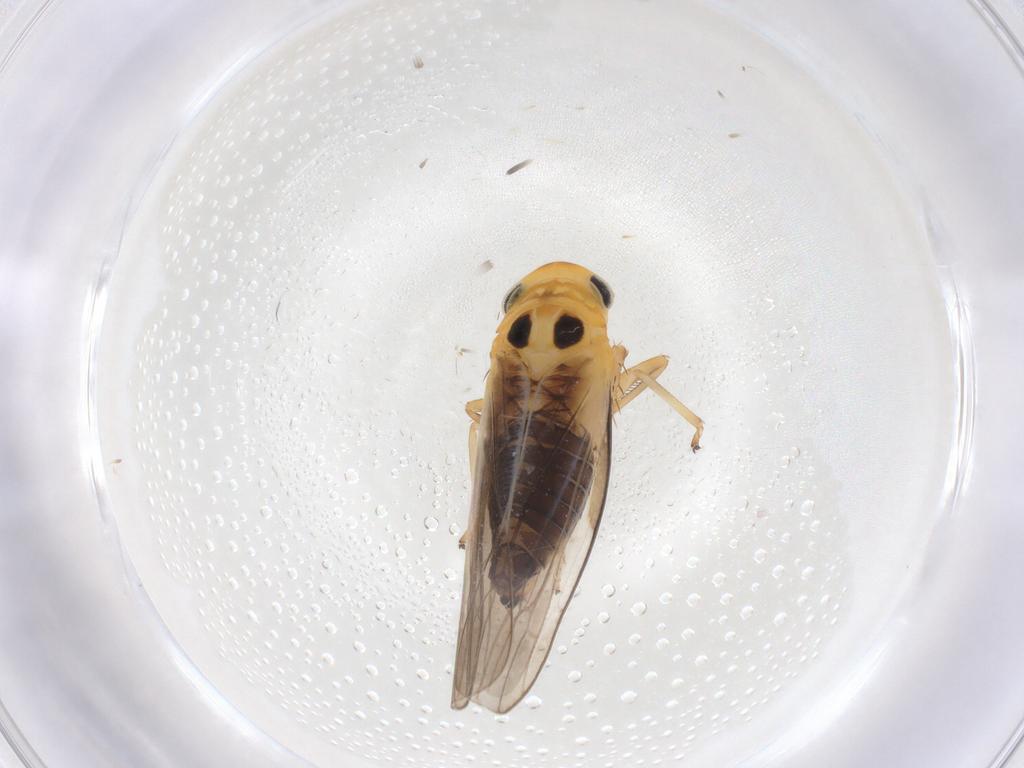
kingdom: Animalia
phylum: Arthropoda
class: Insecta
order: Hemiptera
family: Cicadellidae
